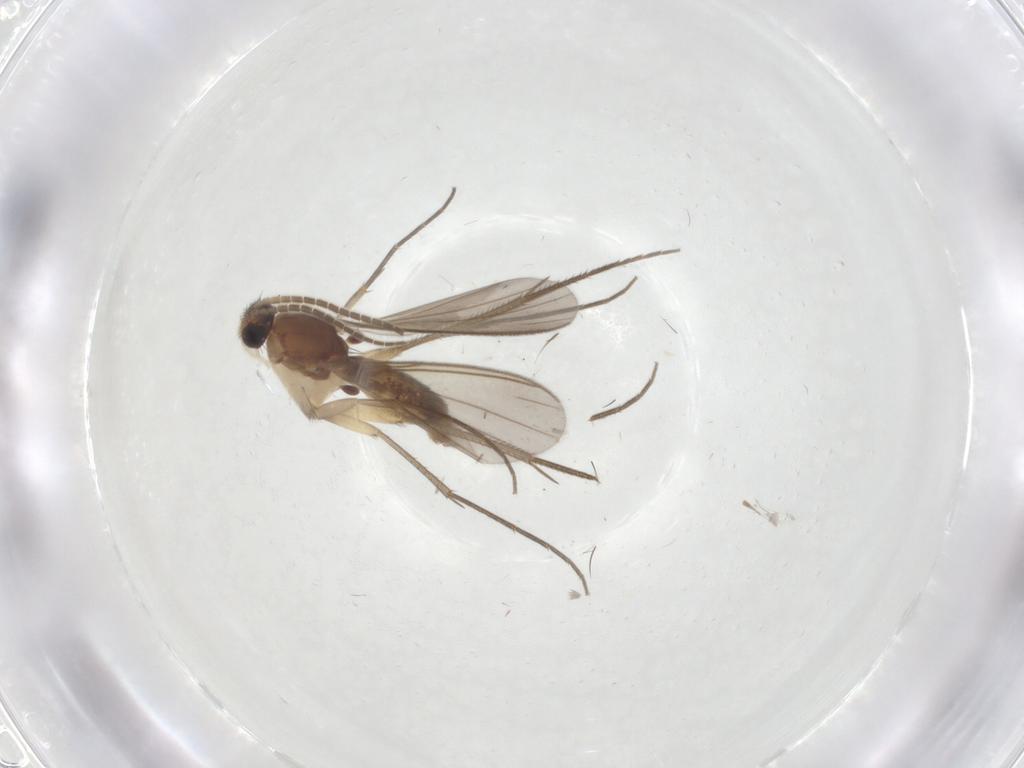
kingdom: Animalia
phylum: Arthropoda
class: Insecta
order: Diptera
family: Mycetophilidae
